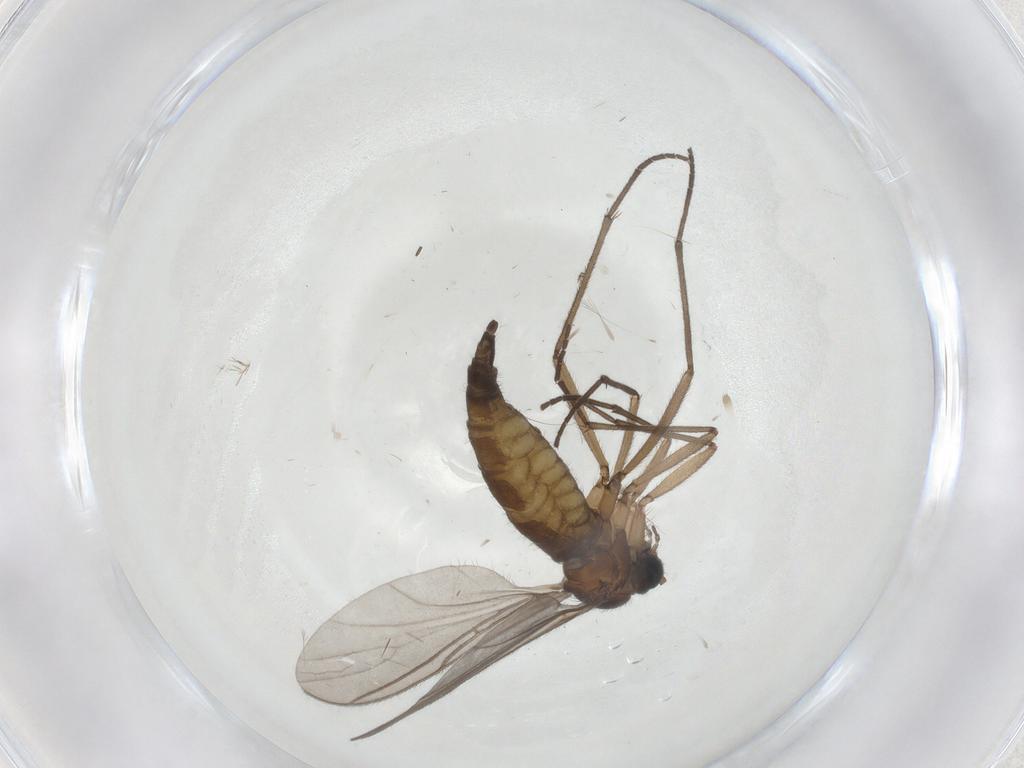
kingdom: Animalia
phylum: Arthropoda
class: Insecta
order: Diptera
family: Sciaridae
